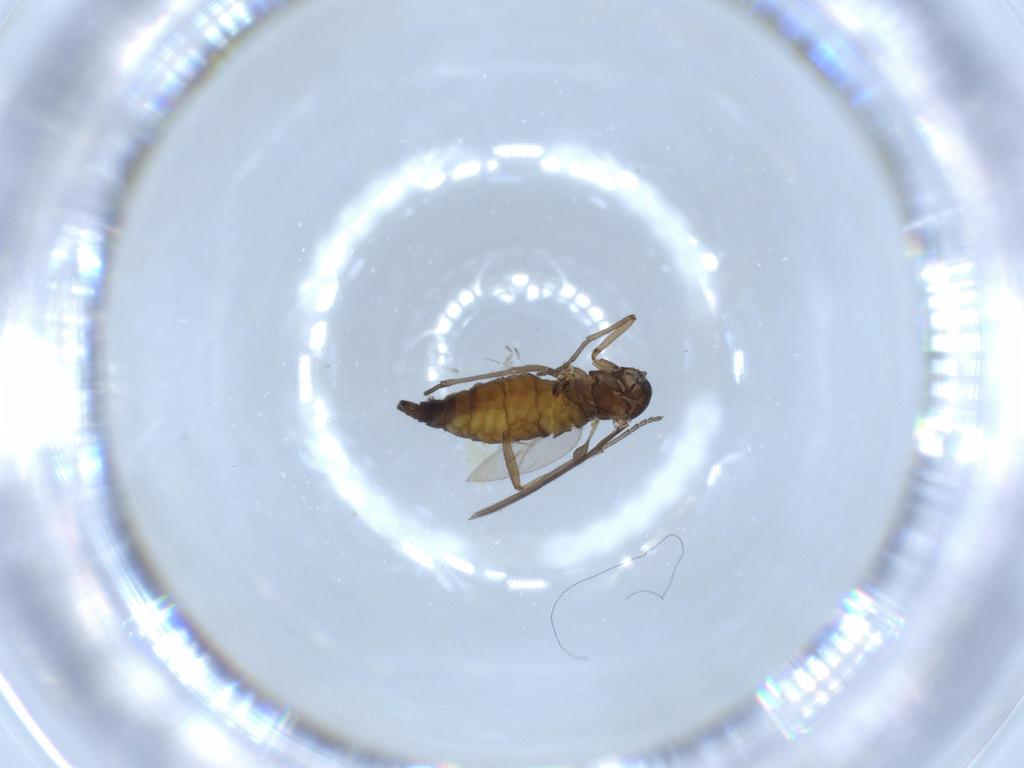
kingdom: Animalia
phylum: Arthropoda
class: Insecta
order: Diptera
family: Sciaridae
